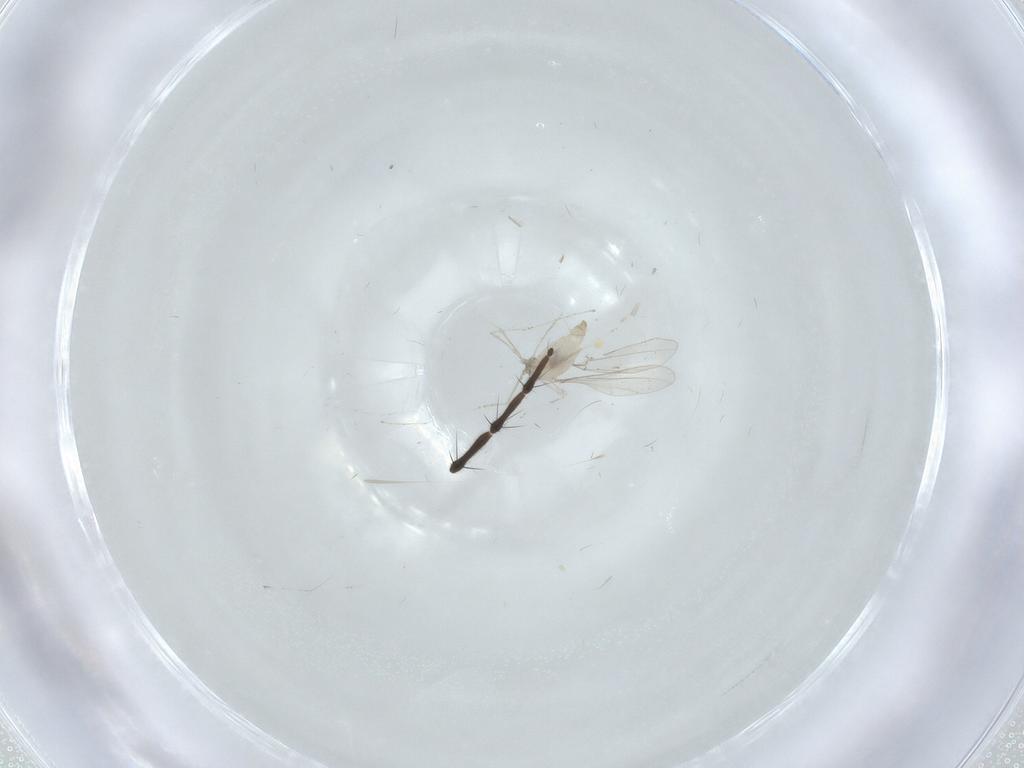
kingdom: Animalia
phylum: Arthropoda
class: Insecta
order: Diptera
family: Cecidomyiidae
